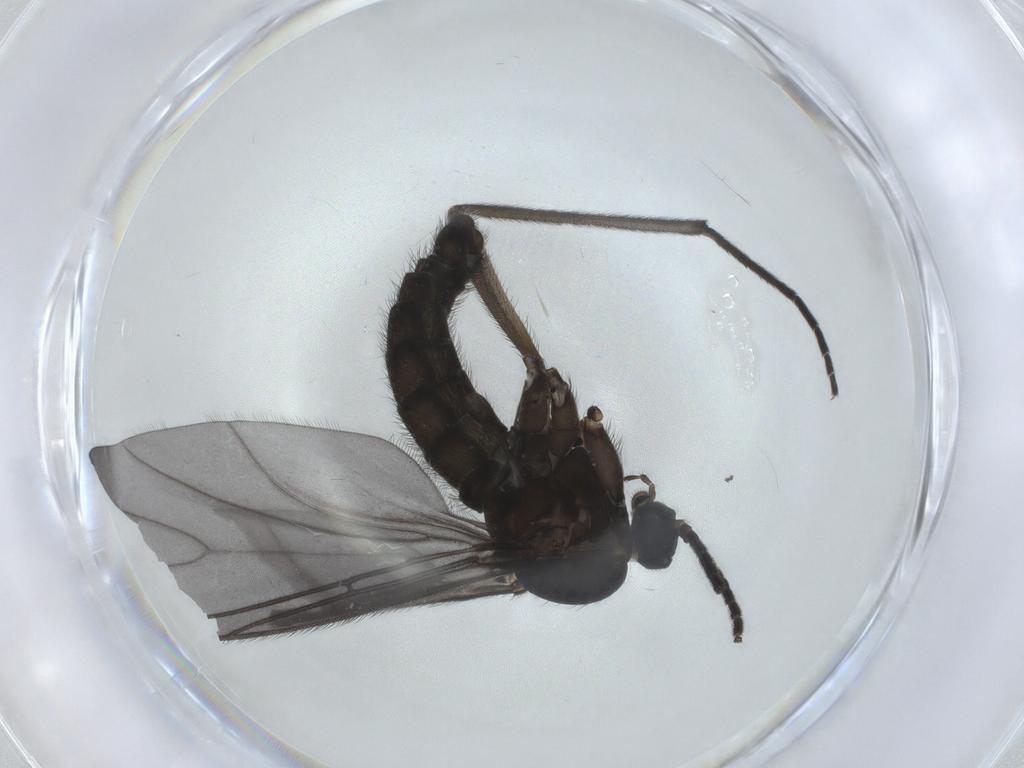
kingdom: Animalia
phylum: Arthropoda
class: Insecta
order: Diptera
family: Sciaridae
